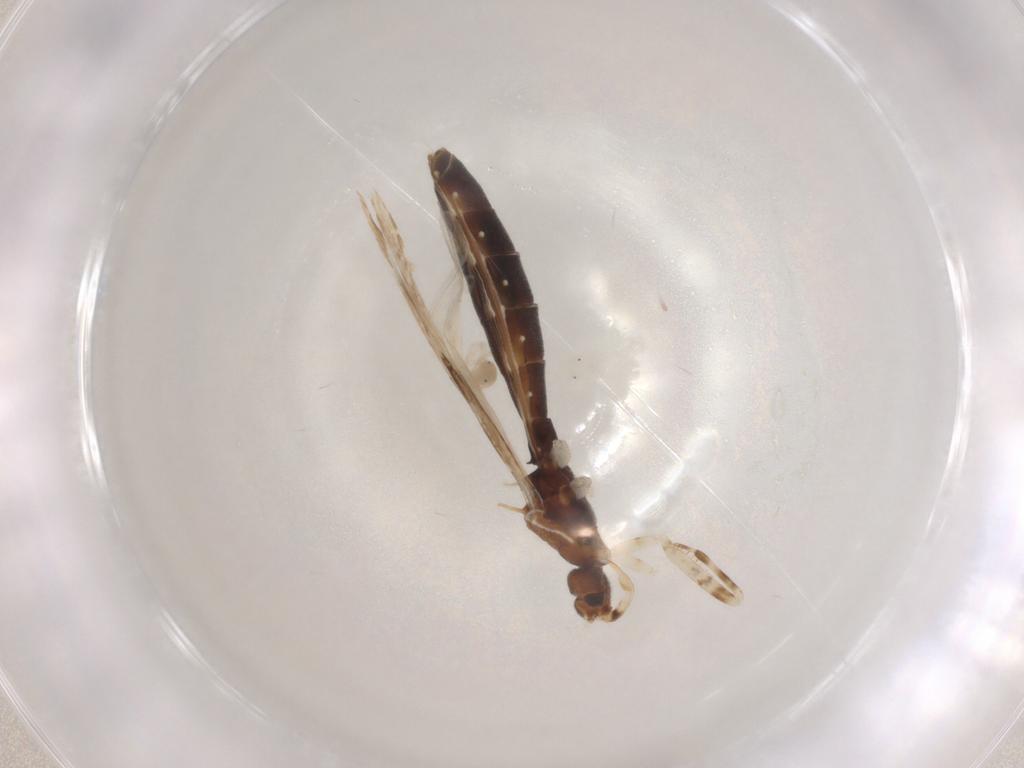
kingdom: Animalia
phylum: Arthropoda
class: Insecta
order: Hemiptera
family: Reduviidae
